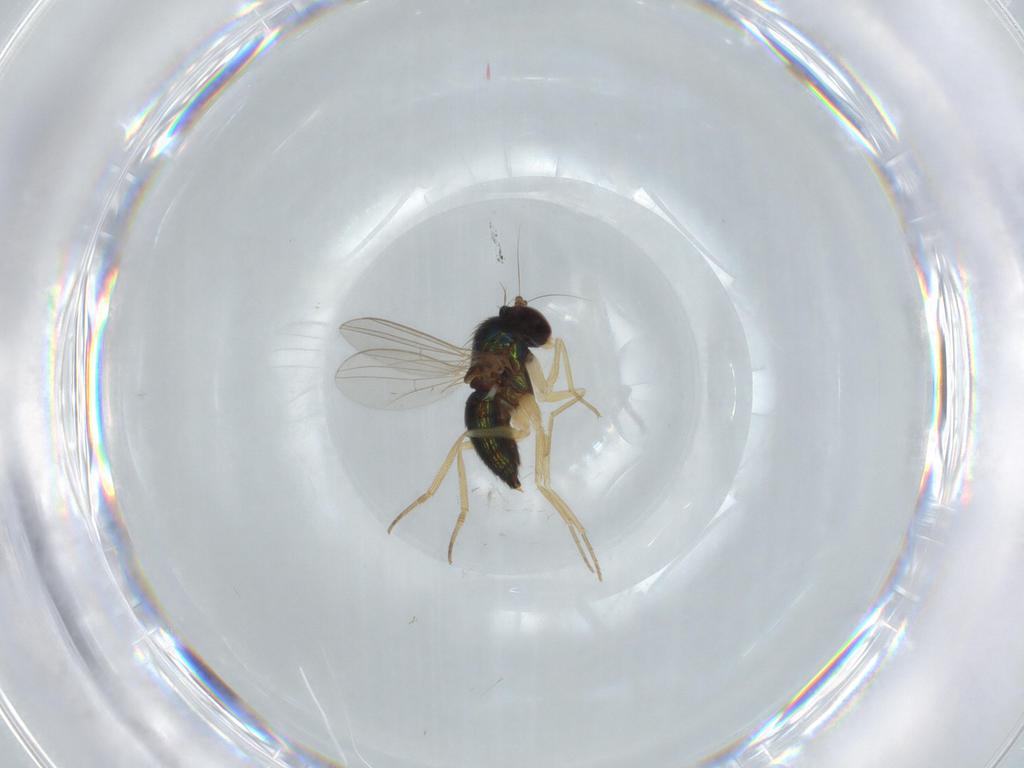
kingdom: Animalia
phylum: Arthropoda
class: Insecta
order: Diptera
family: Dolichopodidae
